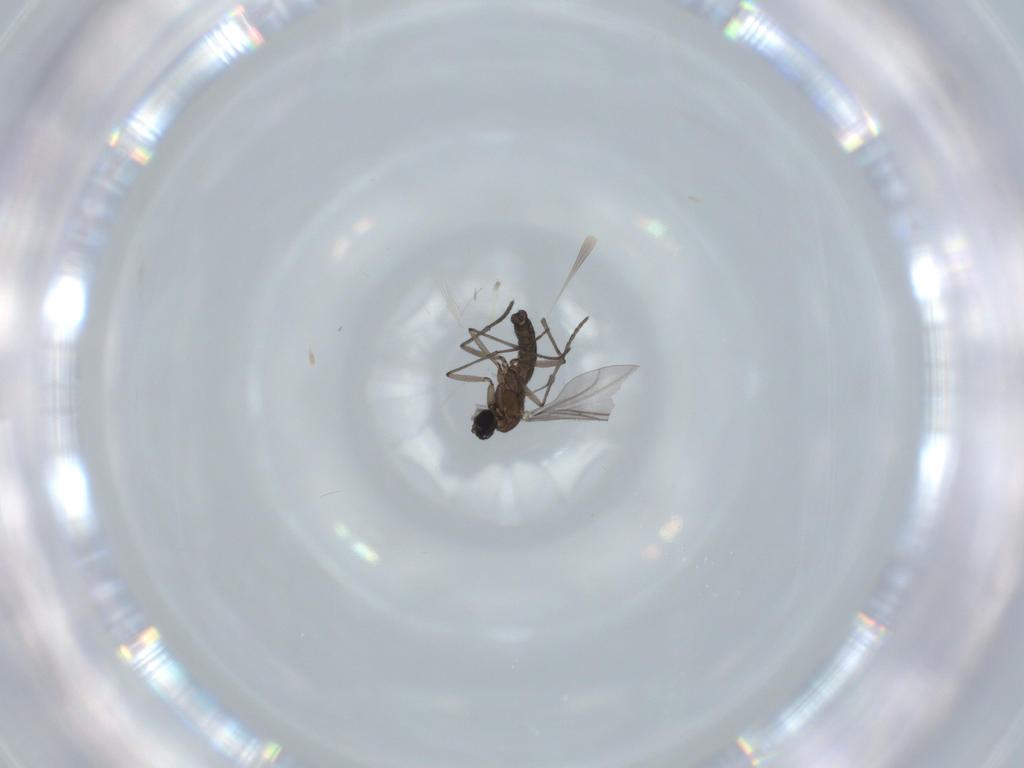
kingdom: Animalia
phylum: Arthropoda
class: Insecta
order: Diptera
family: Sciaridae
